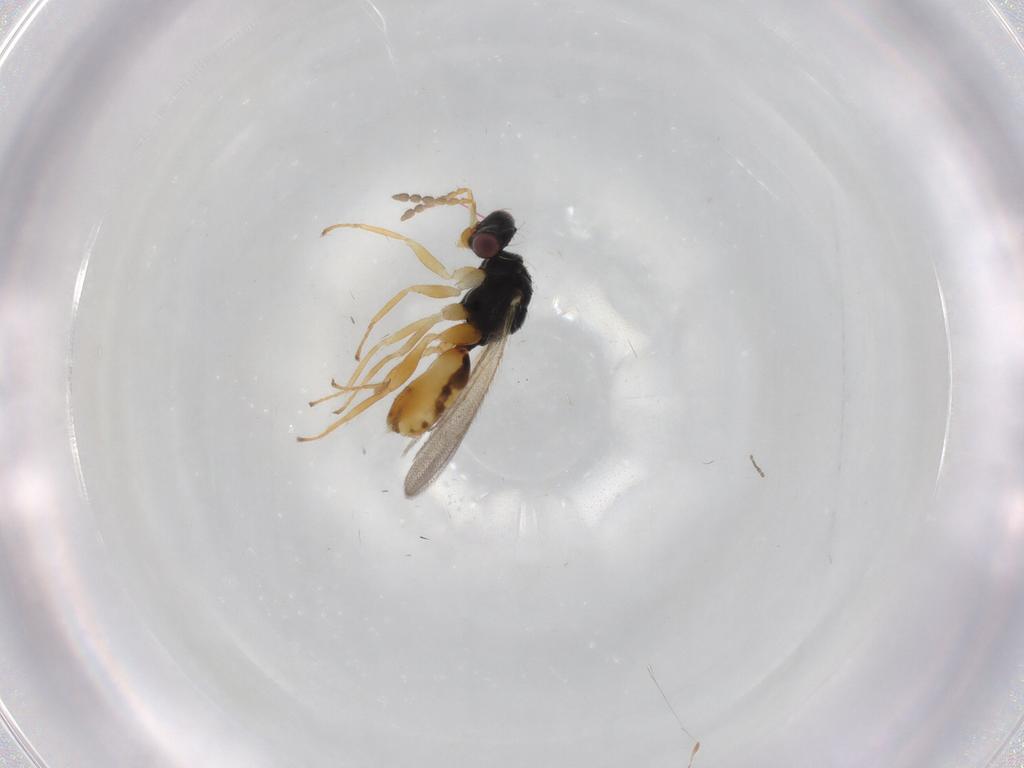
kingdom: Animalia
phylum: Arthropoda
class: Insecta
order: Hymenoptera
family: Eulophidae
